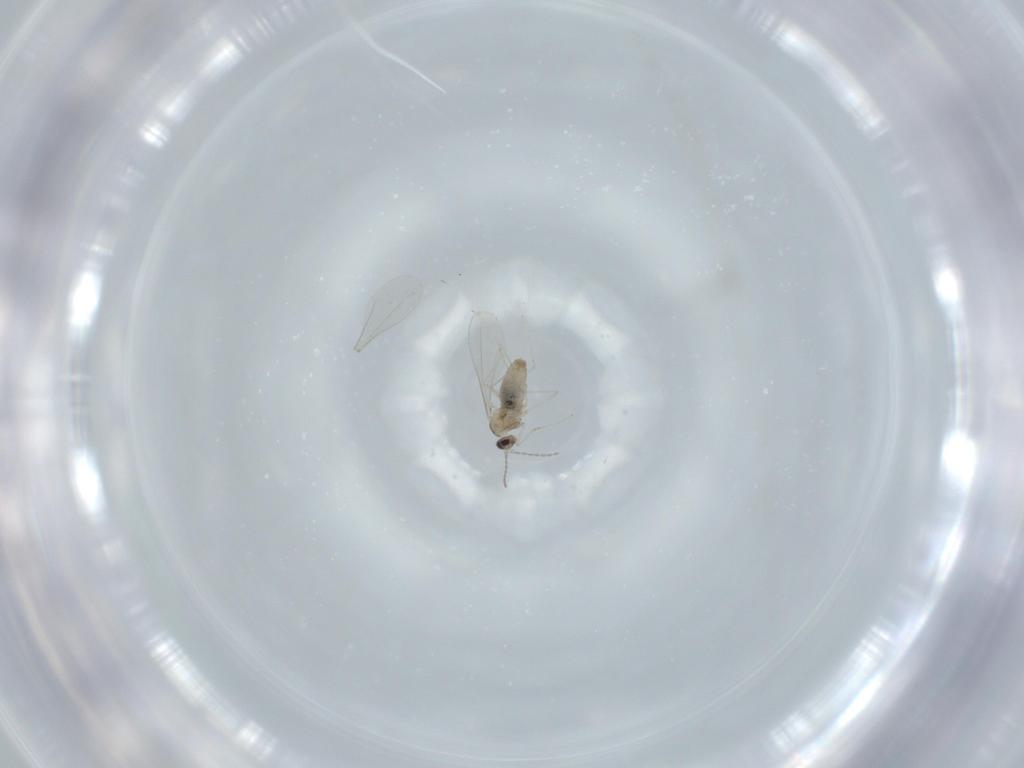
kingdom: Animalia
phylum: Arthropoda
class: Insecta
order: Diptera
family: Cecidomyiidae
